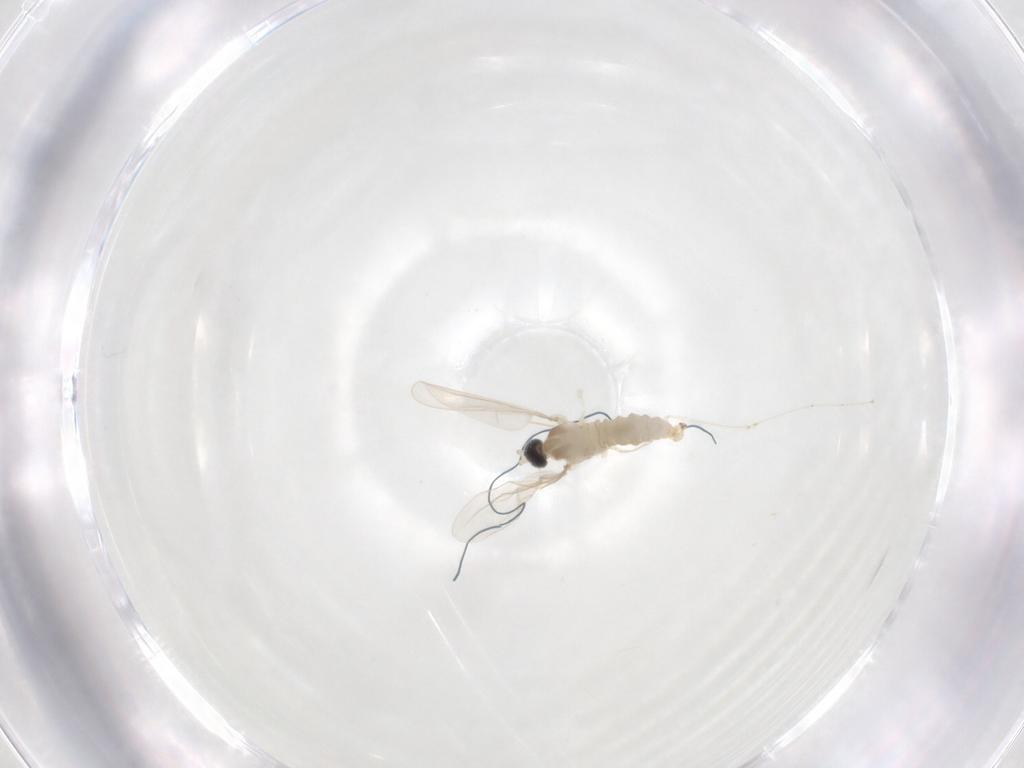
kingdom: Animalia
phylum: Arthropoda
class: Insecta
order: Diptera
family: Cecidomyiidae
